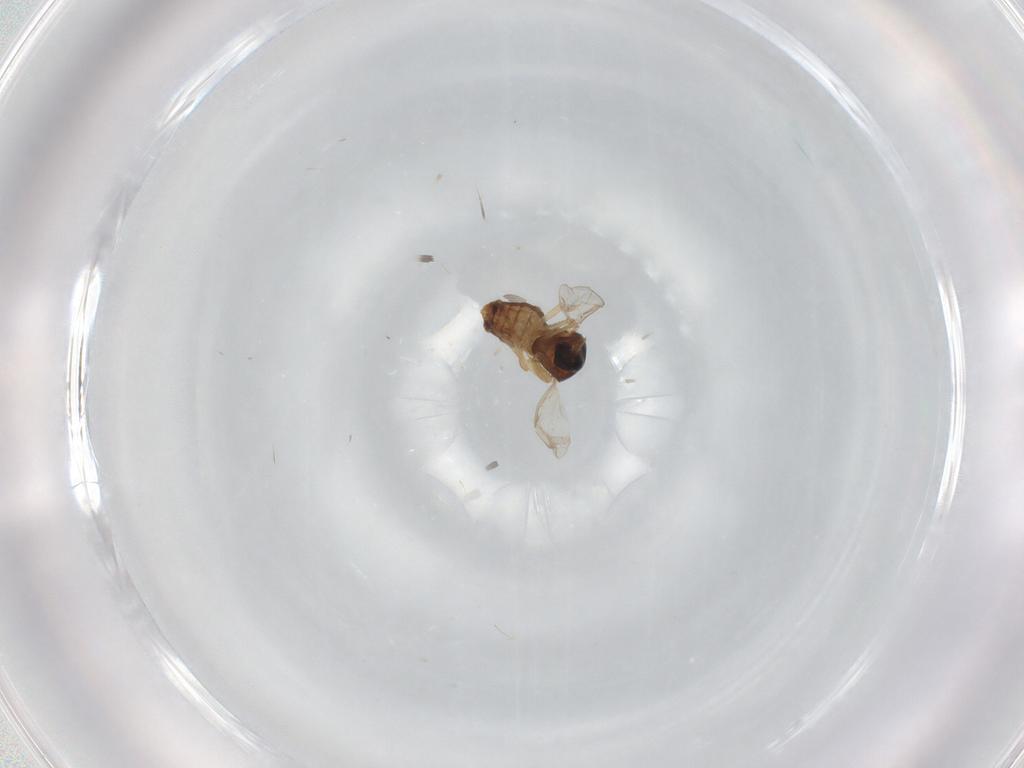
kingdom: Animalia
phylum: Arthropoda
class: Insecta
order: Diptera
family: Ceratopogonidae
